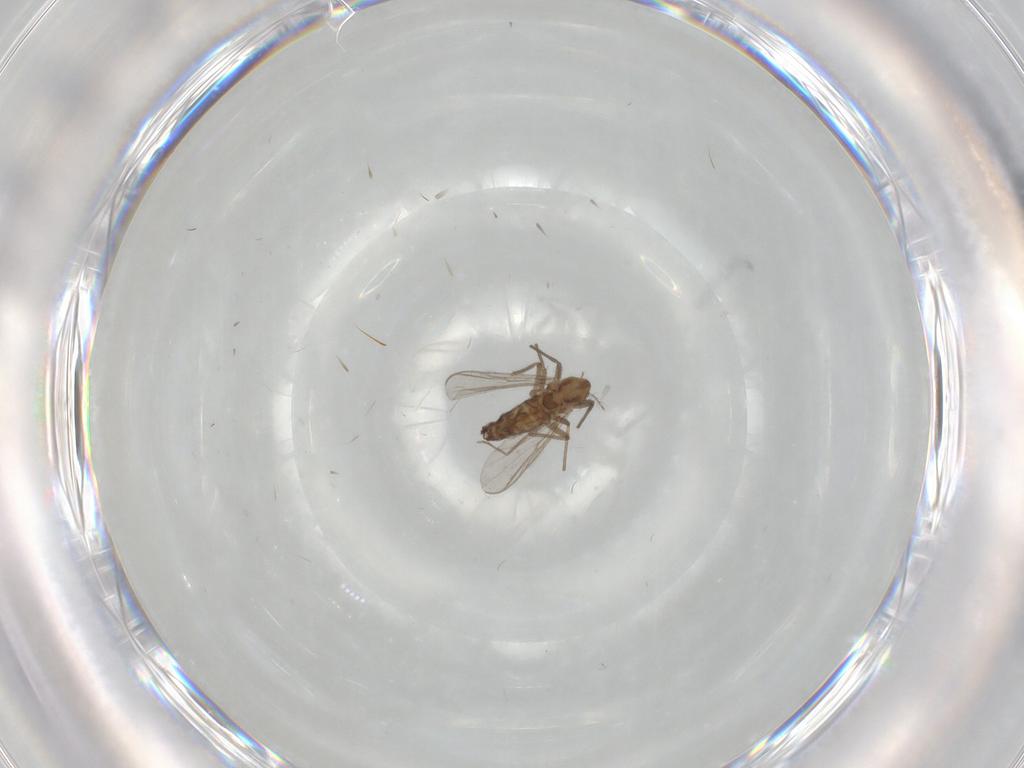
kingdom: Animalia
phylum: Arthropoda
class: Insecta
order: Diptera
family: Chironomidae
